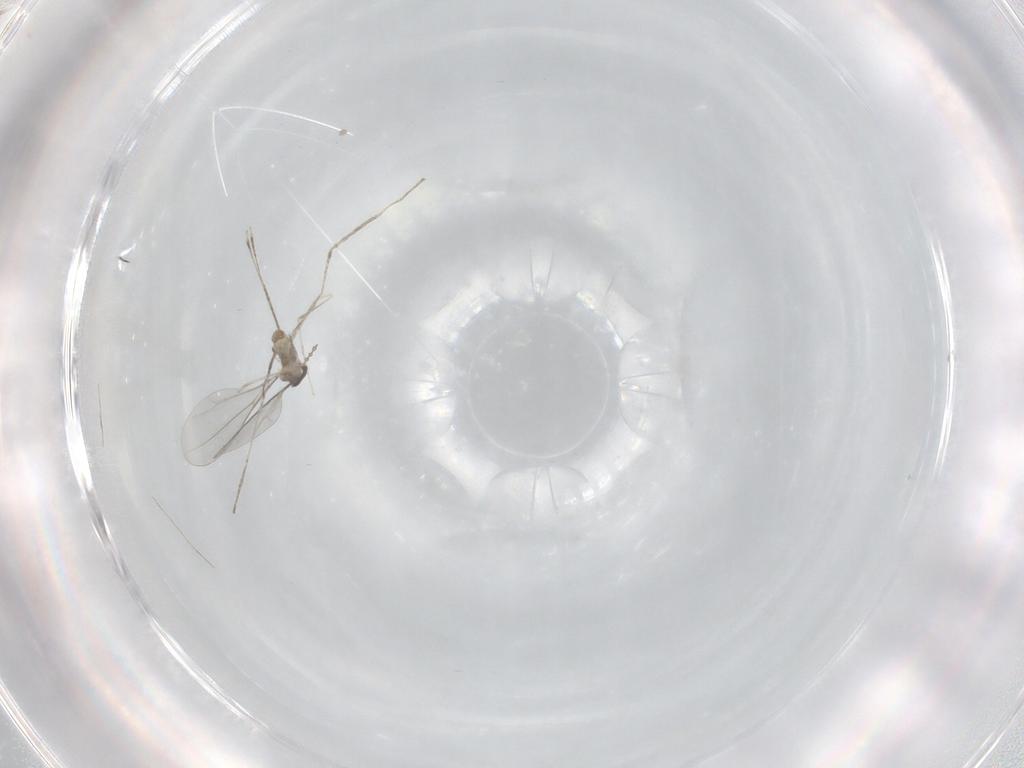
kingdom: Animalia
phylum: Arthropoda
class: Insecta
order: Diptera
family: Cecidomyiidae
